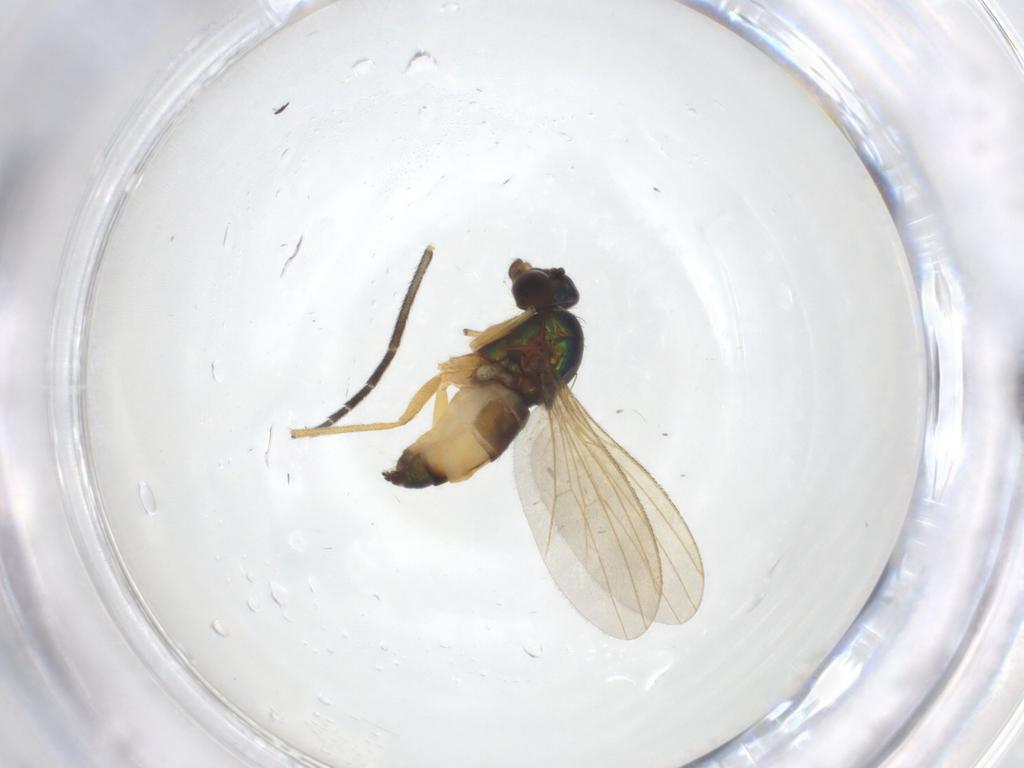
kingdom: Animalia
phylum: Arthropoda
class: Insecta
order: Diptera
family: Dolichopodidae
